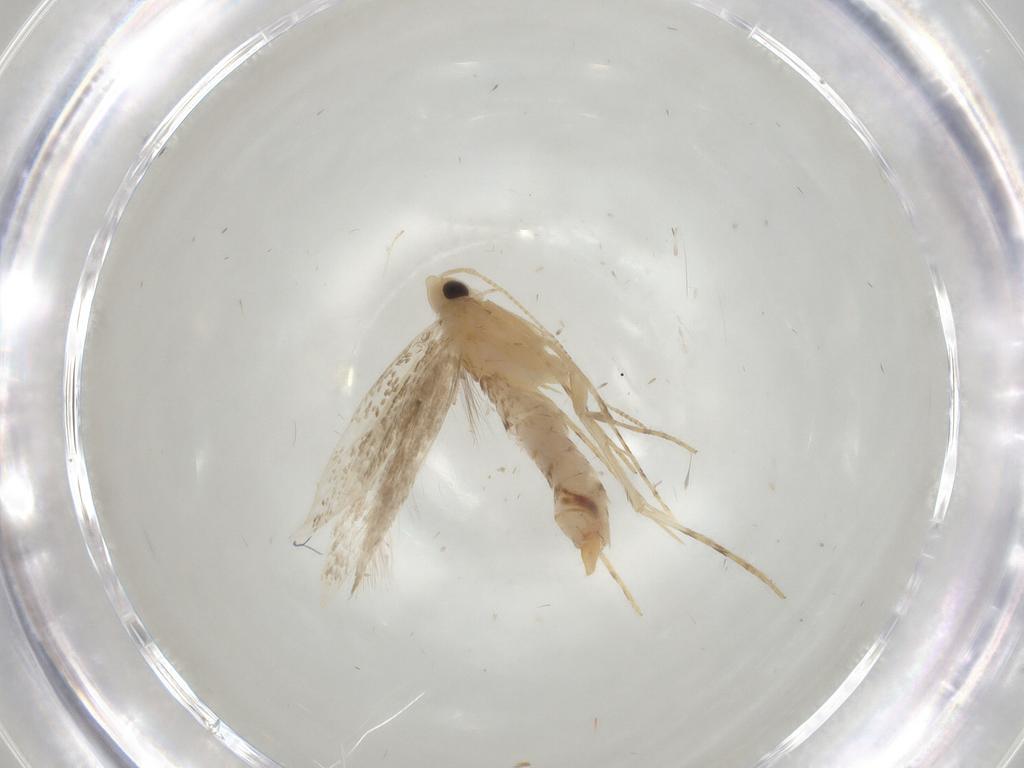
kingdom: Animalia
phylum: Arthropoda
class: Insecta
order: Lepidoptera
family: Gracillariidae
